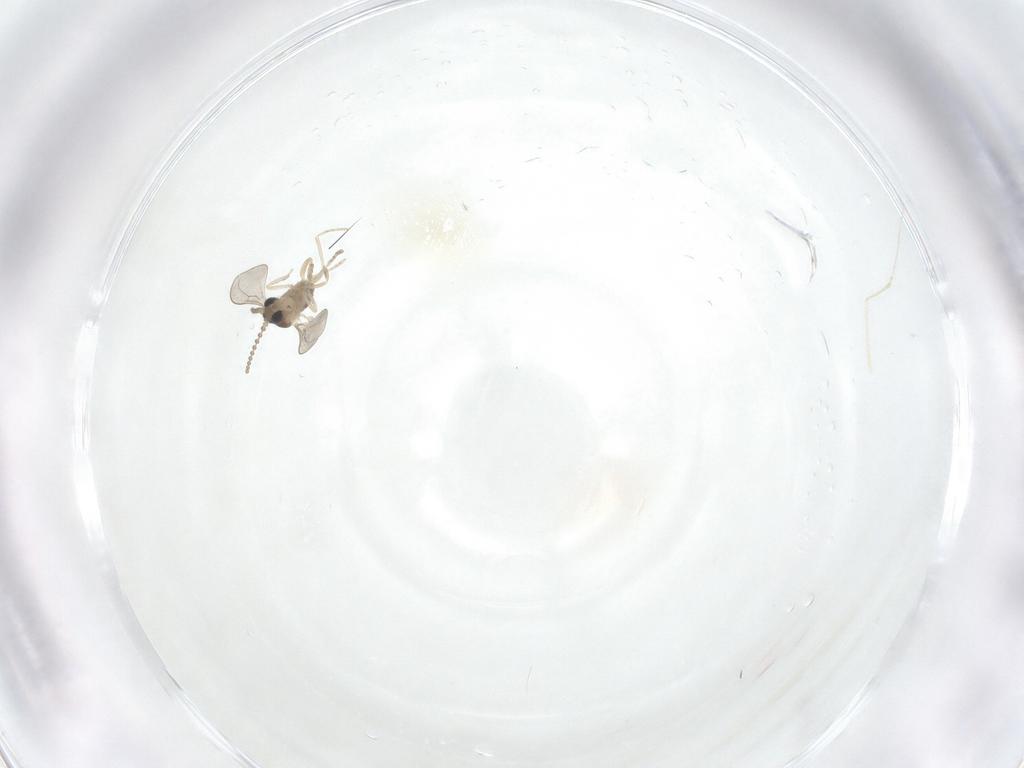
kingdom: Animalia
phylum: Arthropoda
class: Insecta
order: Diptera
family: Cecidomyiidae
